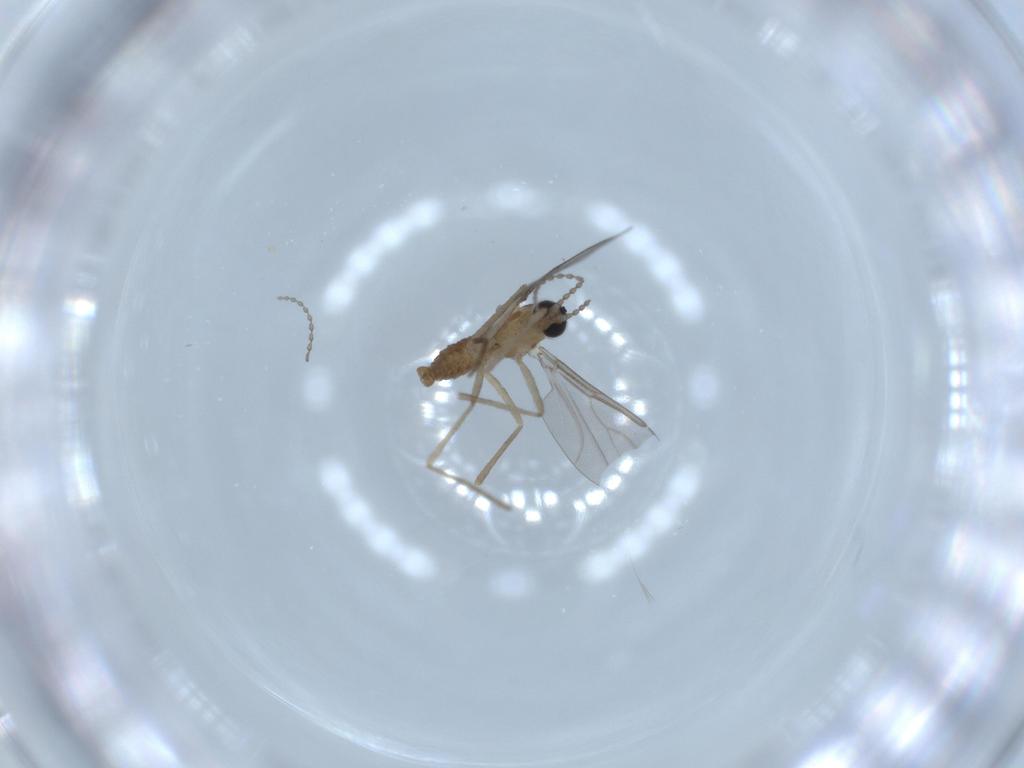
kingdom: Animalia
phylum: Arthropoda
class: Insecta
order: Diptera
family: Cecidomyiidae
